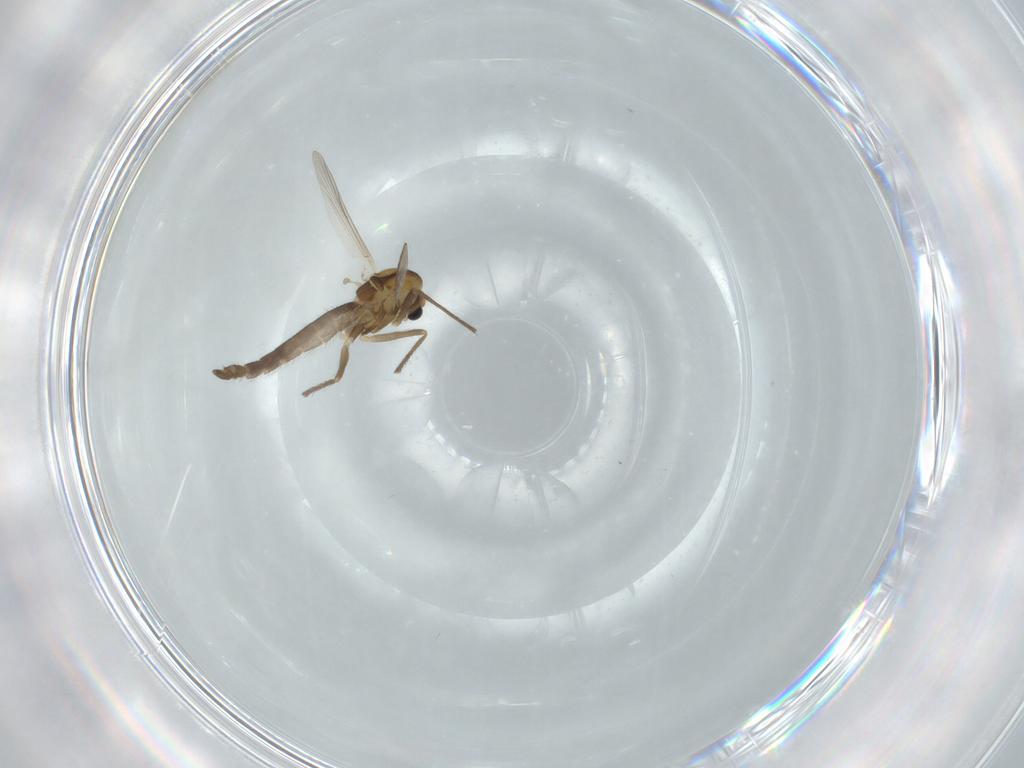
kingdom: Animalia
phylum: Arthropoda
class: Insecta
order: Diptera
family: Chironomidae
